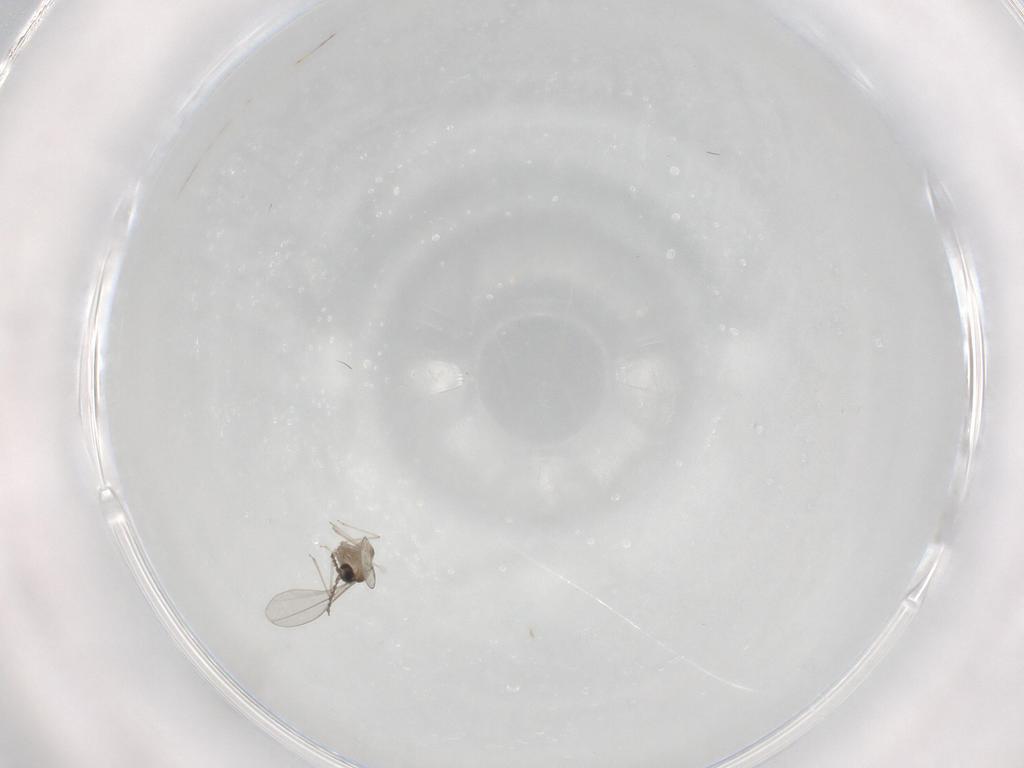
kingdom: Animalia
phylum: Arthropoda
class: Insecta
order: Diptera
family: Cecidomyiidae
